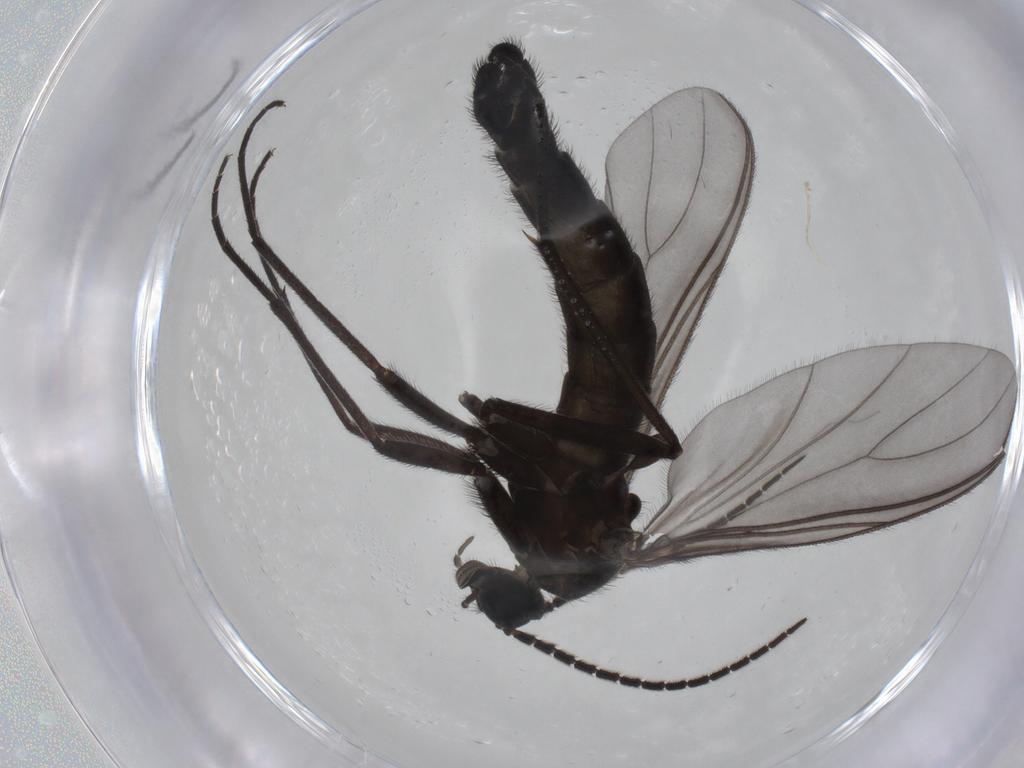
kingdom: Animalia
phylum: Arthropoda
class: Insecta
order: Diptera
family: Phoridae
